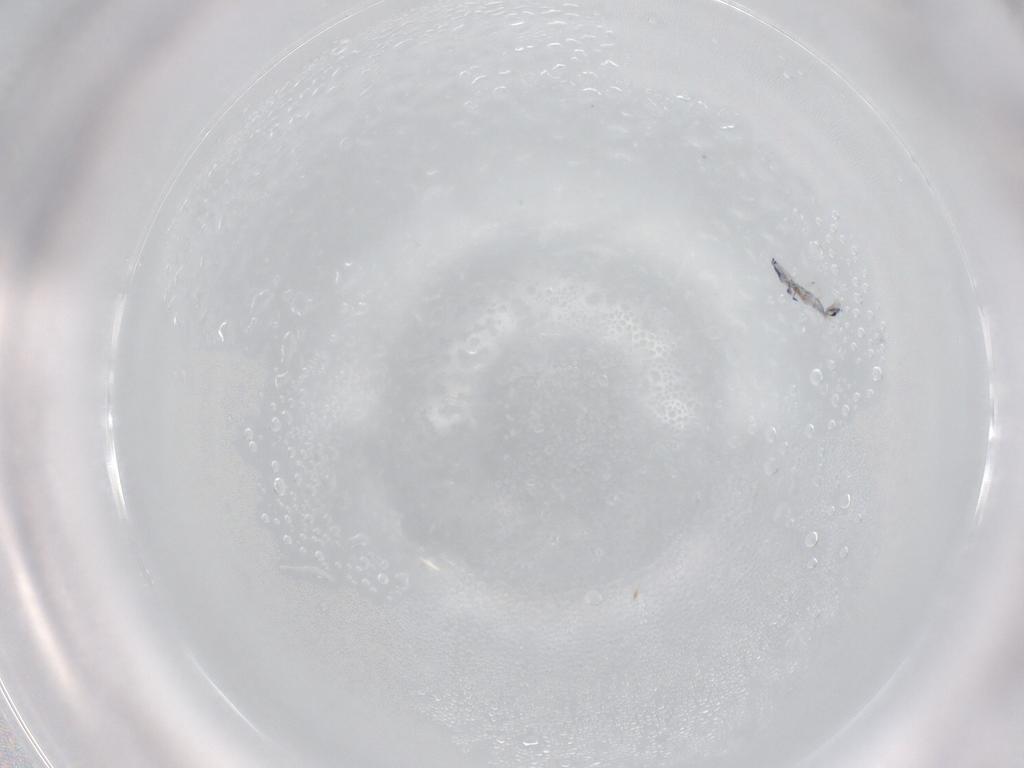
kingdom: Animalia
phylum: Arthropoda
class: Collembola
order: Entomobryomorpha
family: Entomobryidae
